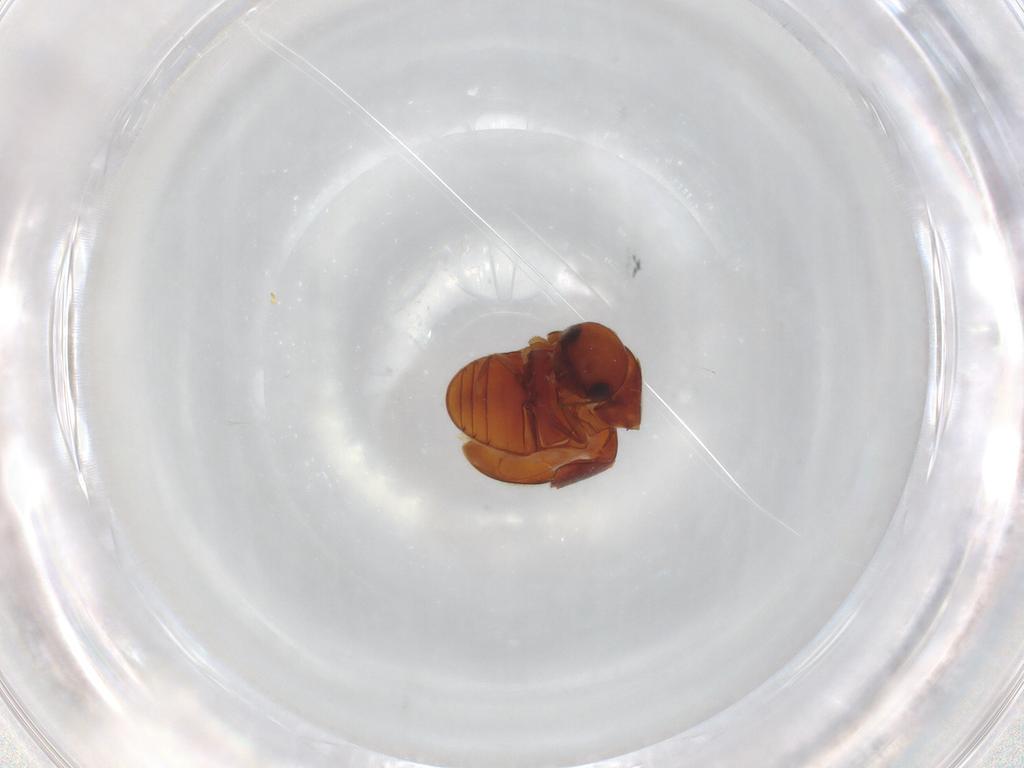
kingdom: Animalia
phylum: Arthropoda
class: Insecta
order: Coleoptera
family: Ptinidae
